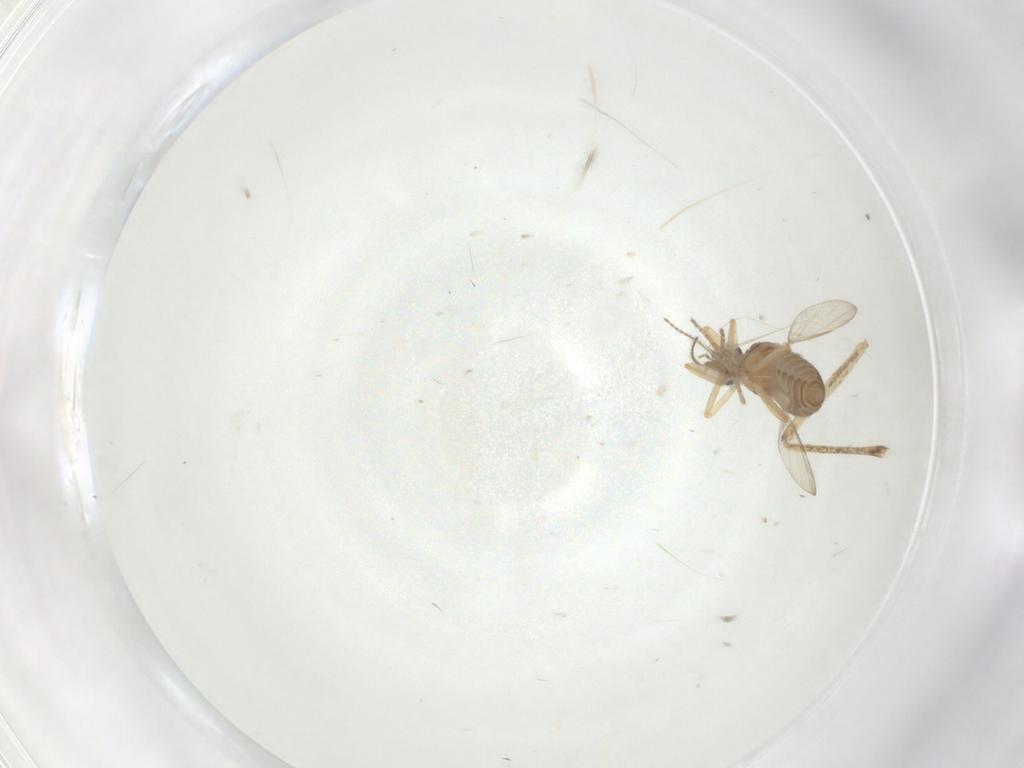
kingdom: Animalia
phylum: Arthropoda
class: Insecta
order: Diptera
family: Culicidae
